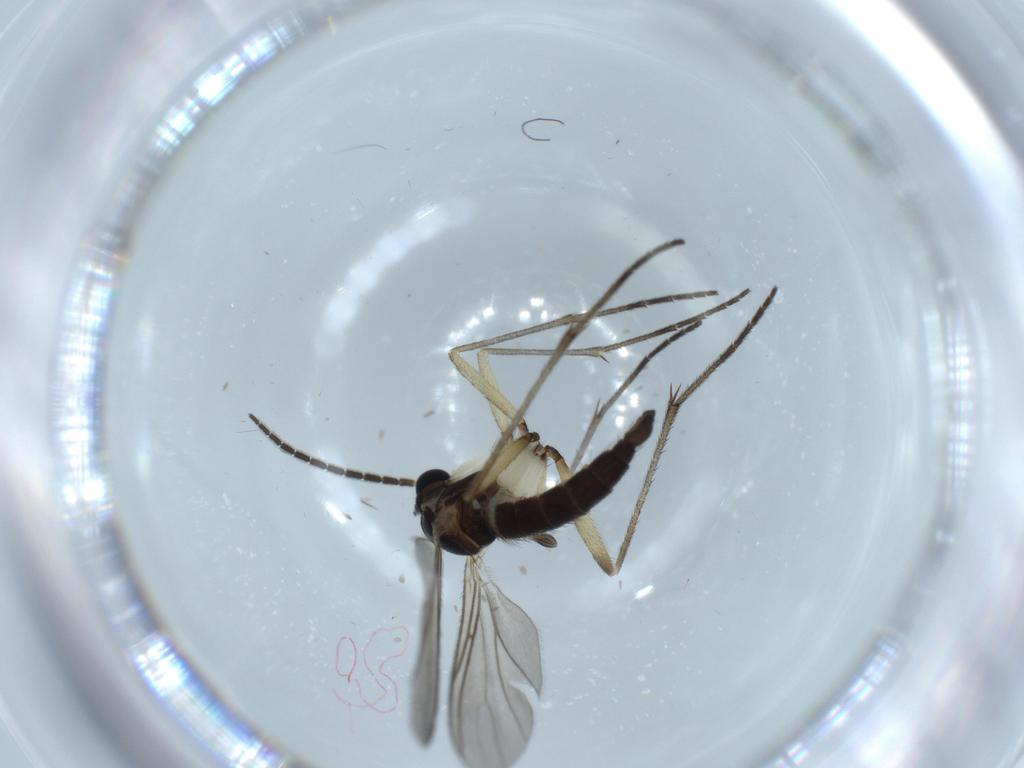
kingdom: Animalia
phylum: Arthropoda
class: Insecta
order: Diptera
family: Sciaridae
